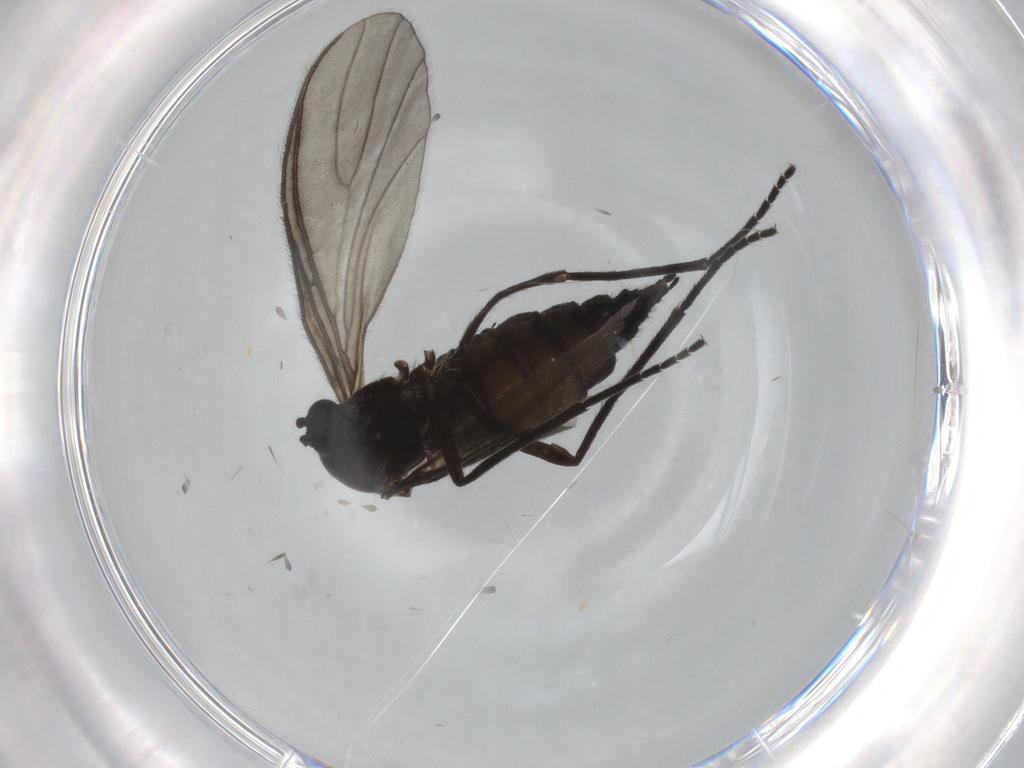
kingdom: Animalia
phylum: Arthropoda
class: Insecta
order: Diptera
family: Sciaridae
